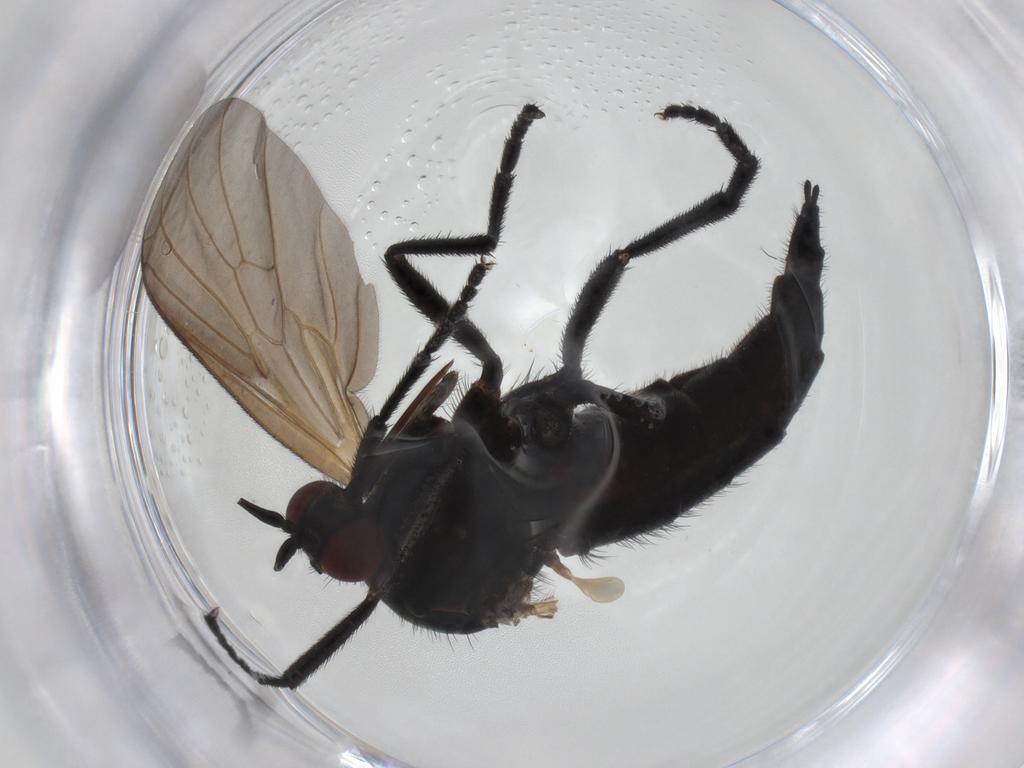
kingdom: Animalia
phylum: Arthropoda
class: Insecta
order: Diptera
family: Empididae
